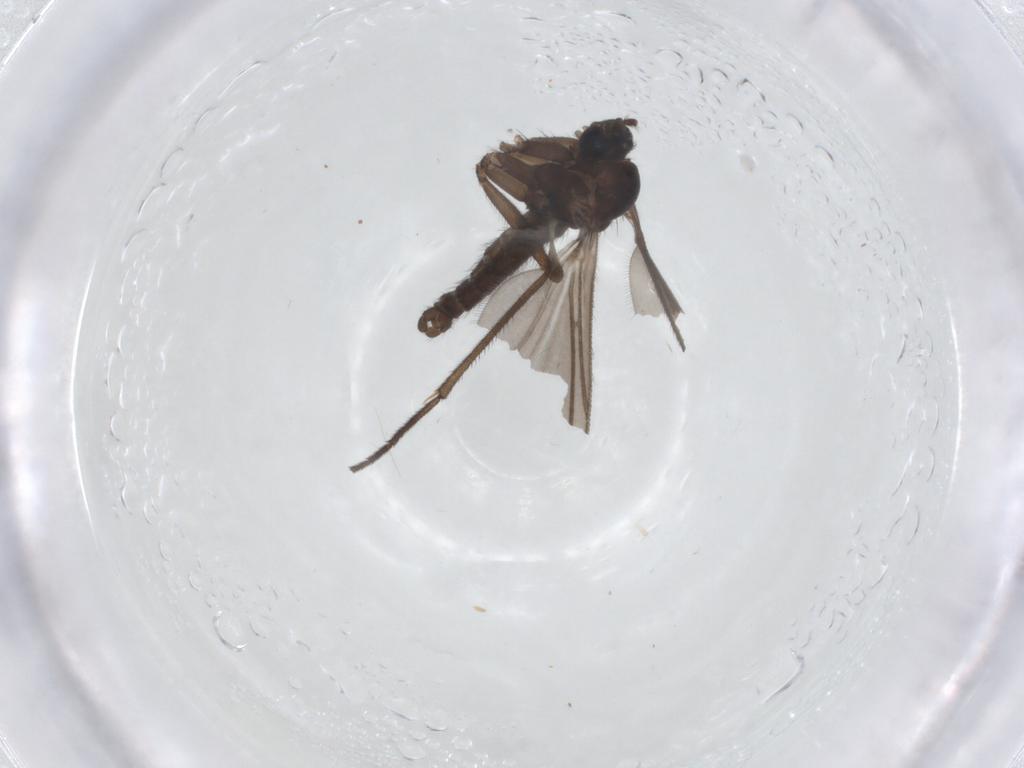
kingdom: Animalia
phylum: Arthropoda
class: Insecta
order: Diptera
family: Sciaridae
